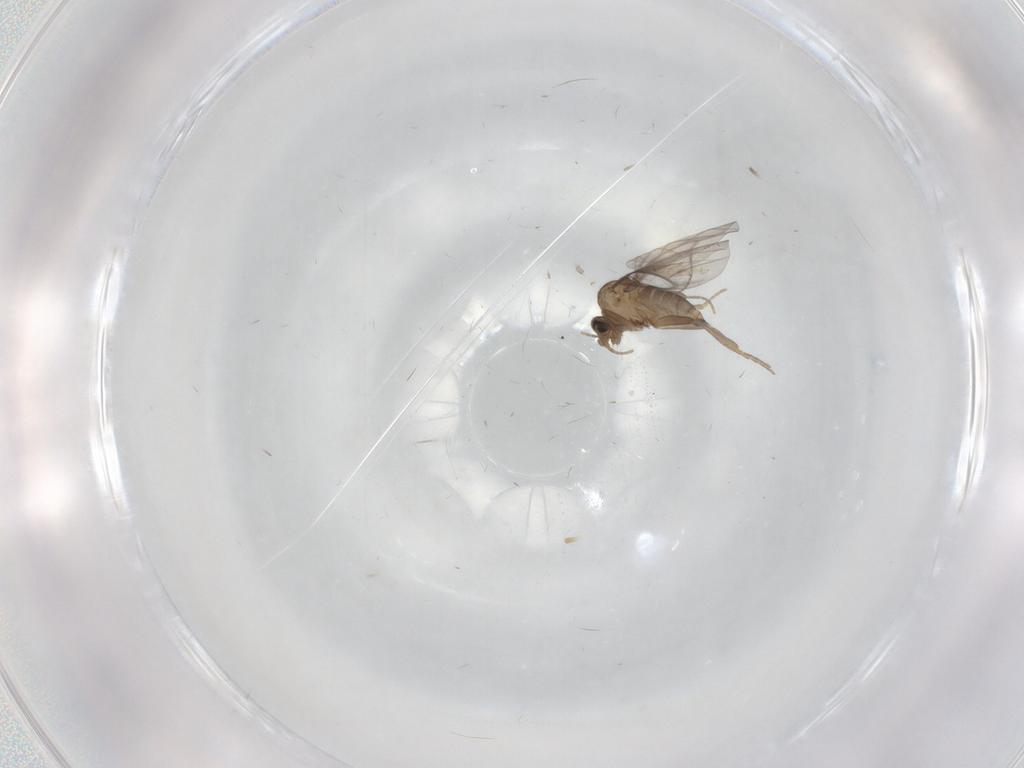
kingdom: Animalia
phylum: Arthropoda
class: Insecta
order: Diptera
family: Ceratopogonidae
